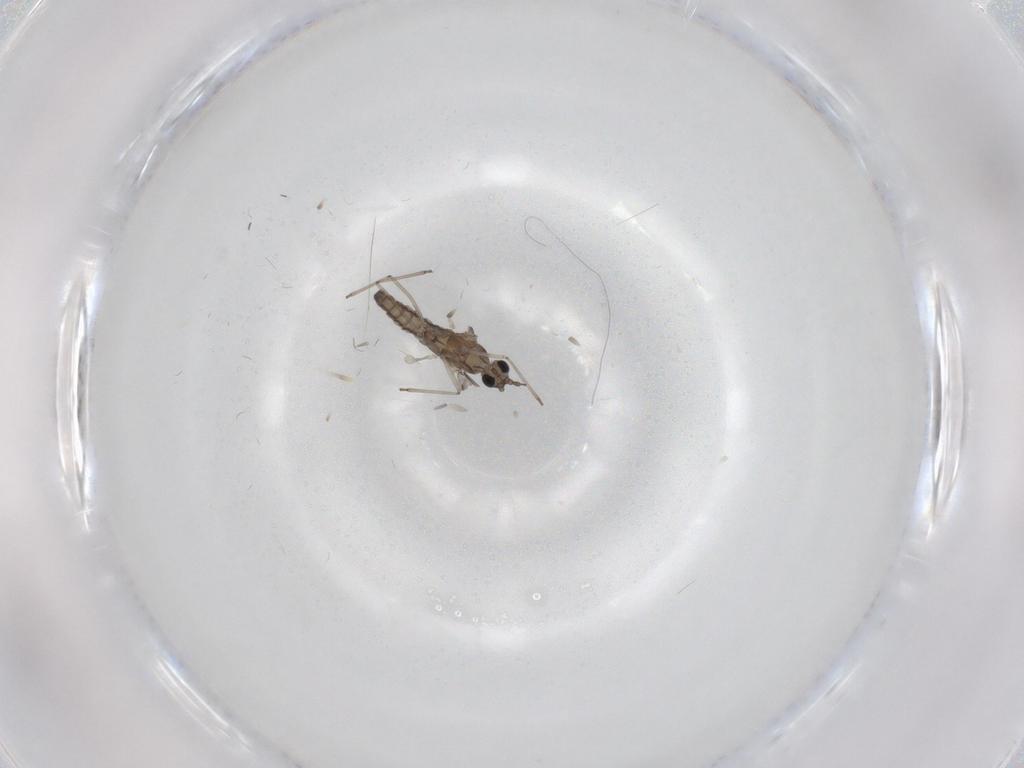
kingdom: Animalia
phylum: Arthropoda
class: Insecta
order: Diptera
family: Cecidomyiidae
